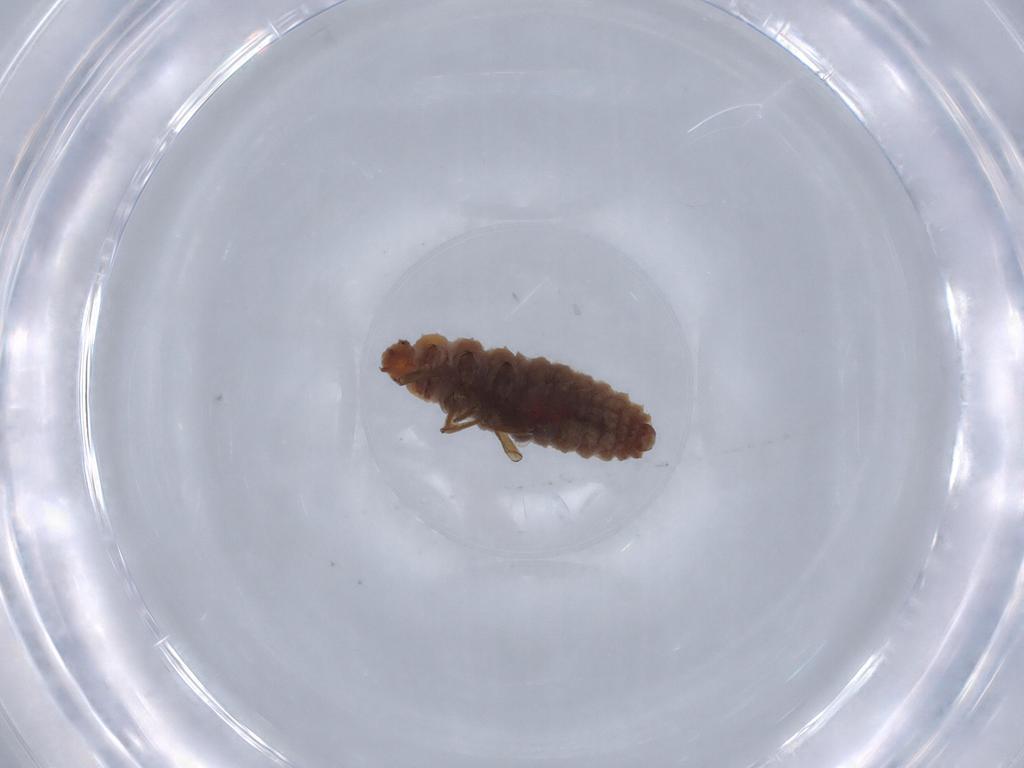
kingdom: Animalia
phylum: Arthropoda
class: Insecta
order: Coleoptera
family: Coccinellidae
